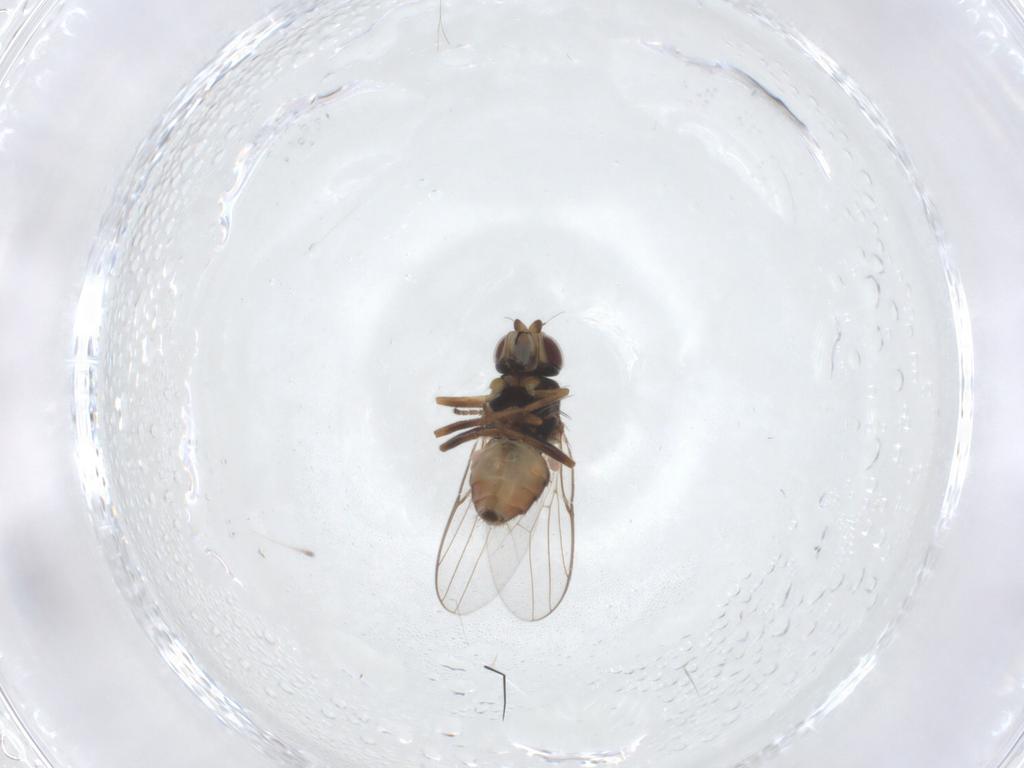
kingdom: Animalia
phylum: Arthropoda
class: Insecta
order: Diptera
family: Chloropidae
